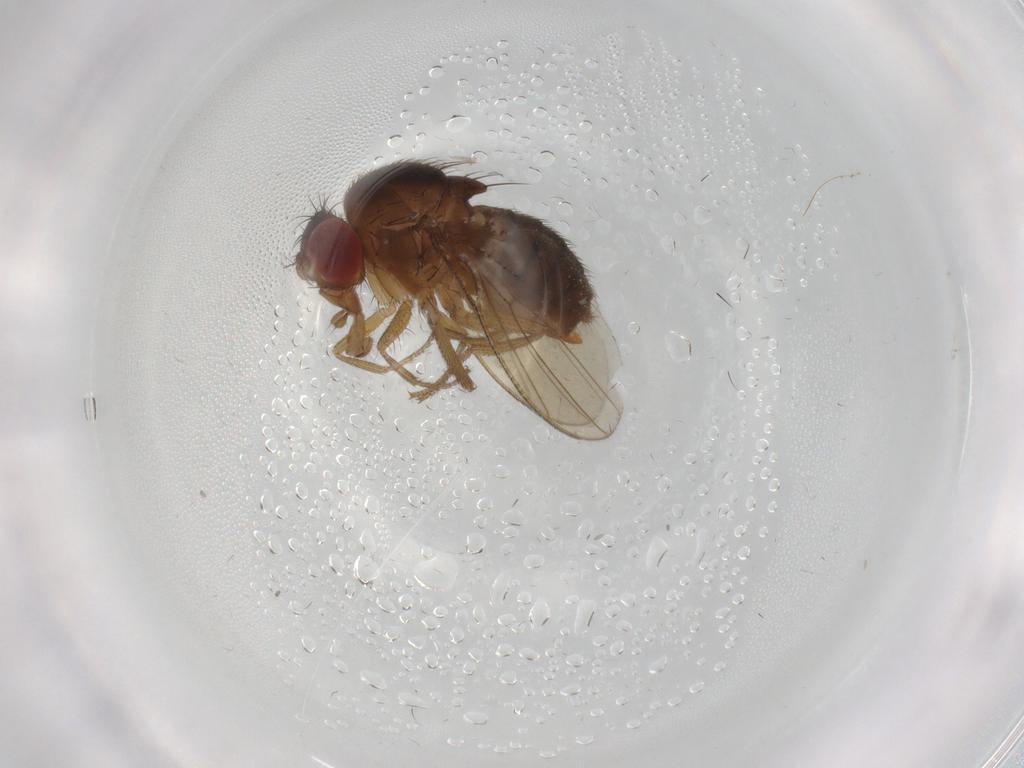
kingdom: Animalia
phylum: Arthropoda
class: Insecta
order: Diptera
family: Drosophilidae
